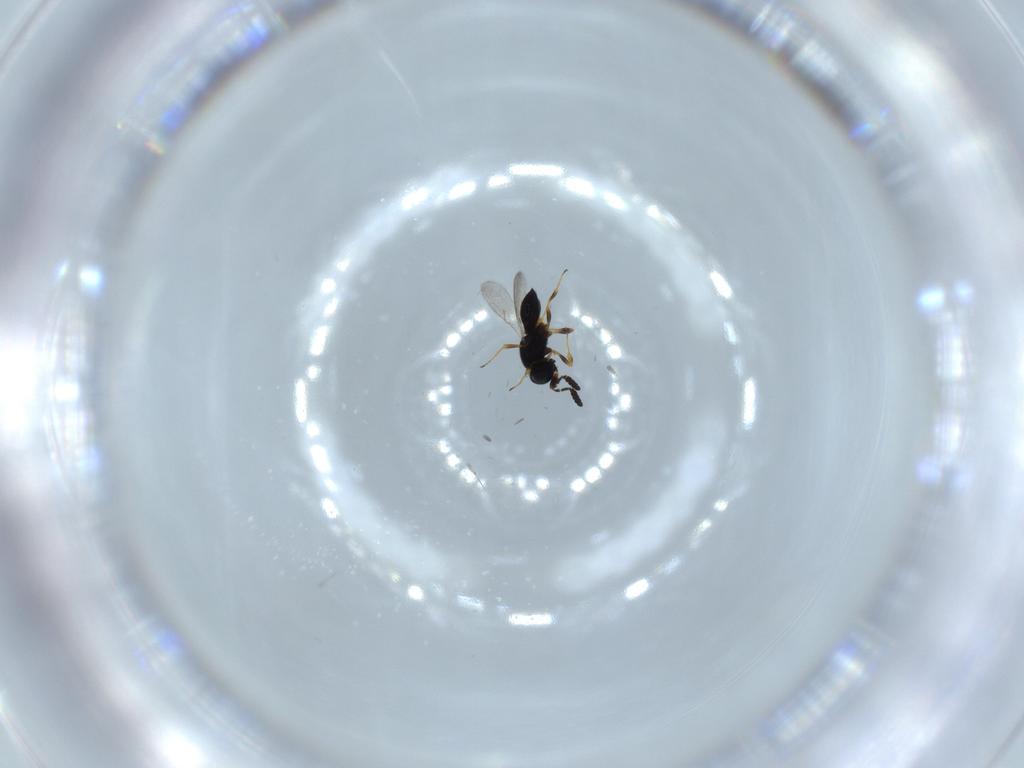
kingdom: Animalia
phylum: Arthropoda
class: Insecta
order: Hymenoptera
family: Scelionidae
